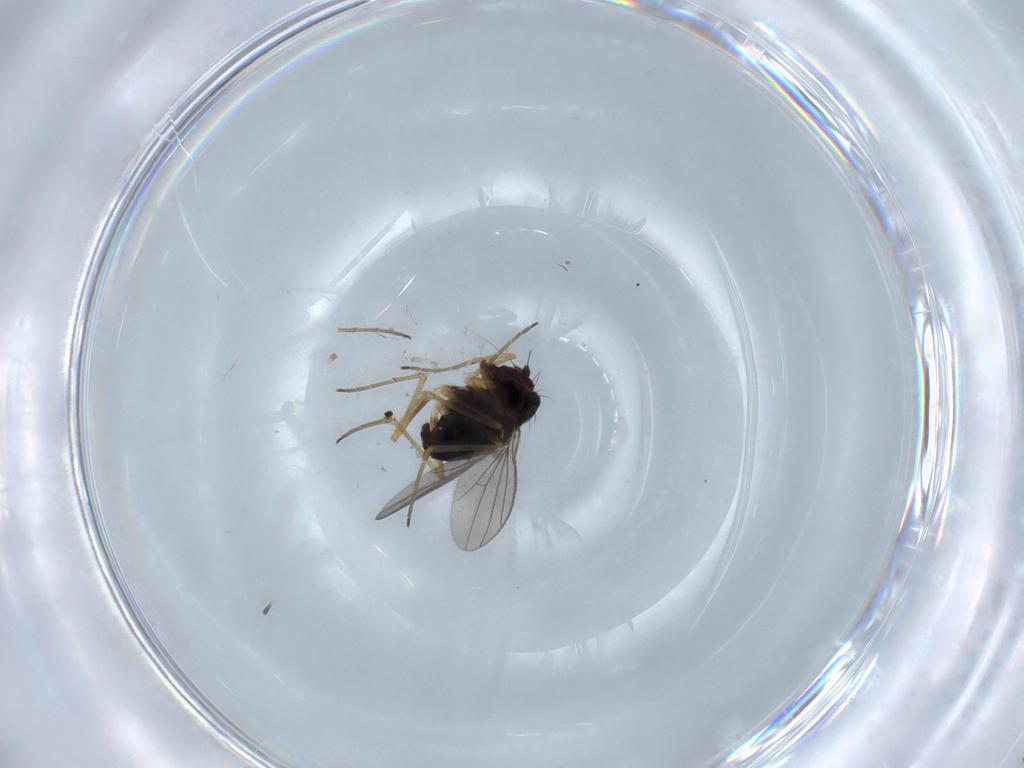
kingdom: Animalia
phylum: Arthropoda
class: Insecta
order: Diptera
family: Dolichopodidae
